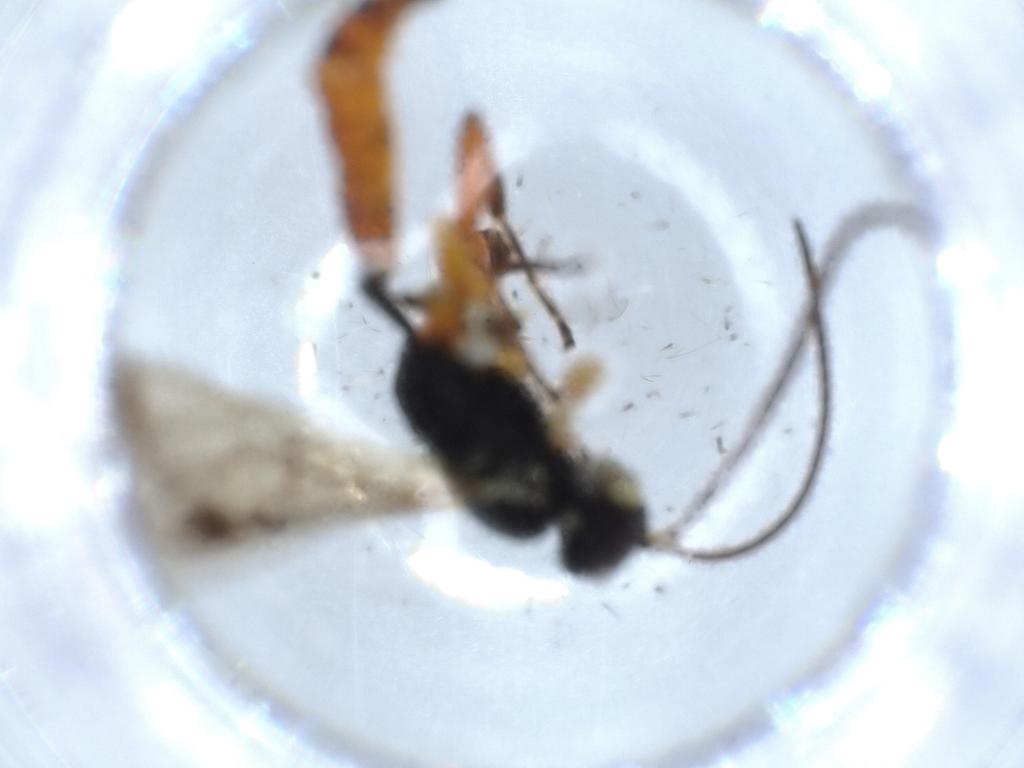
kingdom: Animalia
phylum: Arthropoda
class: Insecta
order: Hymenoptera
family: Ichneumonidae
